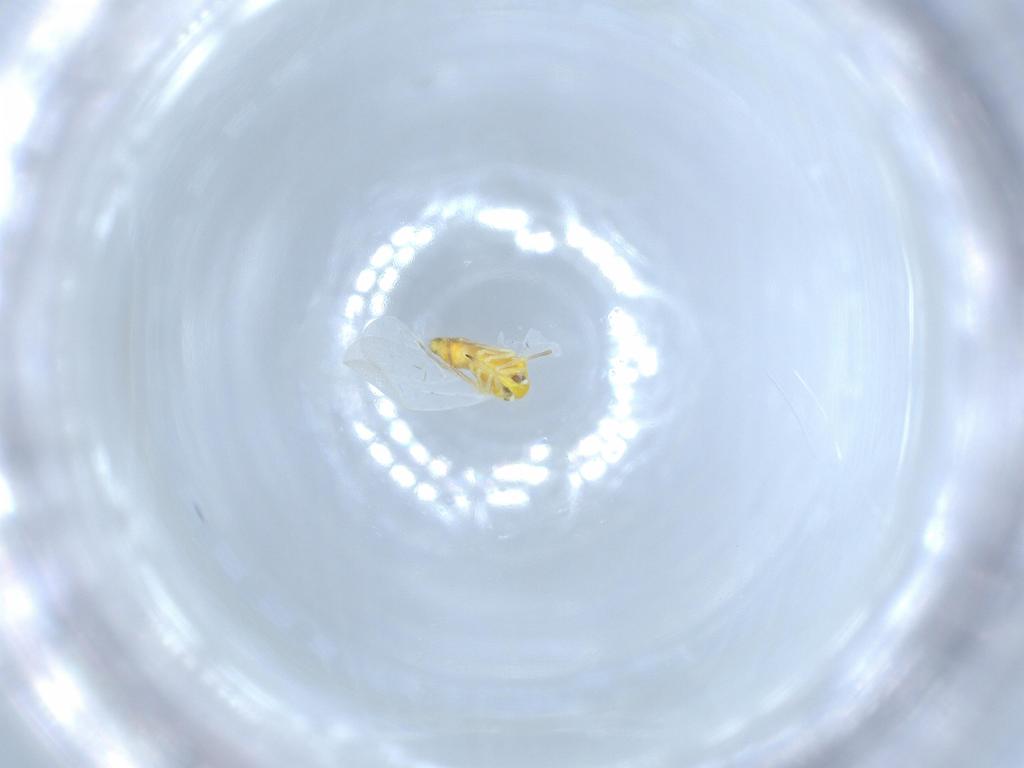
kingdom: Animalia
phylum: Arthropoda
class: Insecta
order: Hemiptera
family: Aleyrodidae
